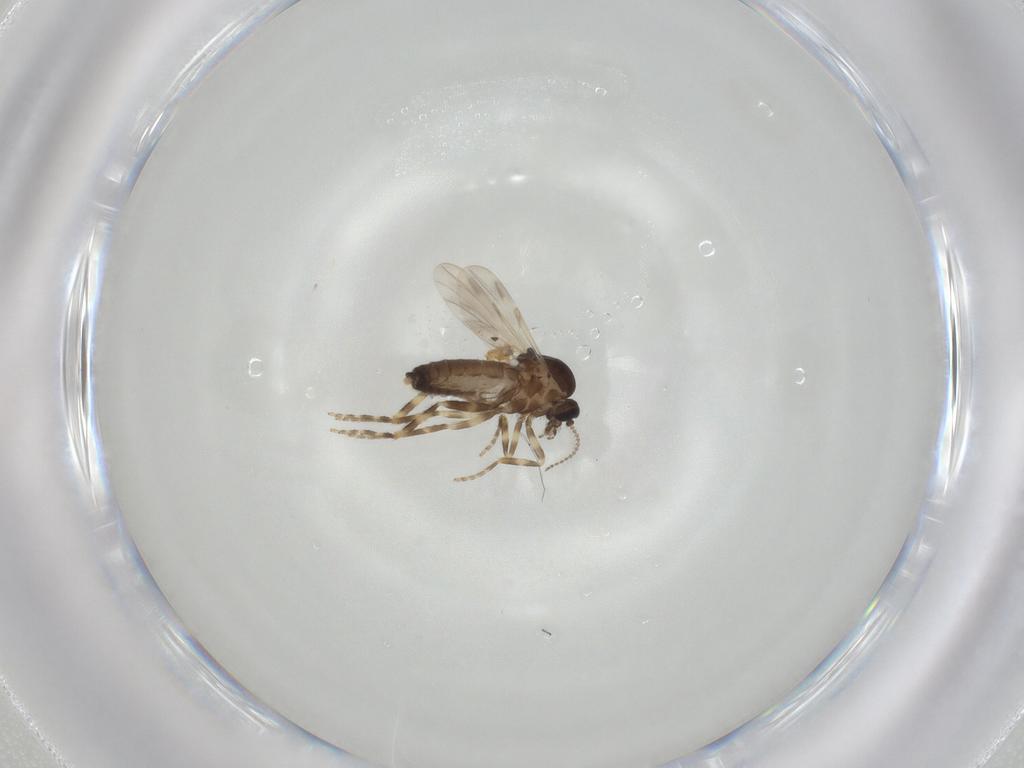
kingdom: Animalia
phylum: Arthropoda
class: Insecta
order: Diptera
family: Ceratopogonidae
